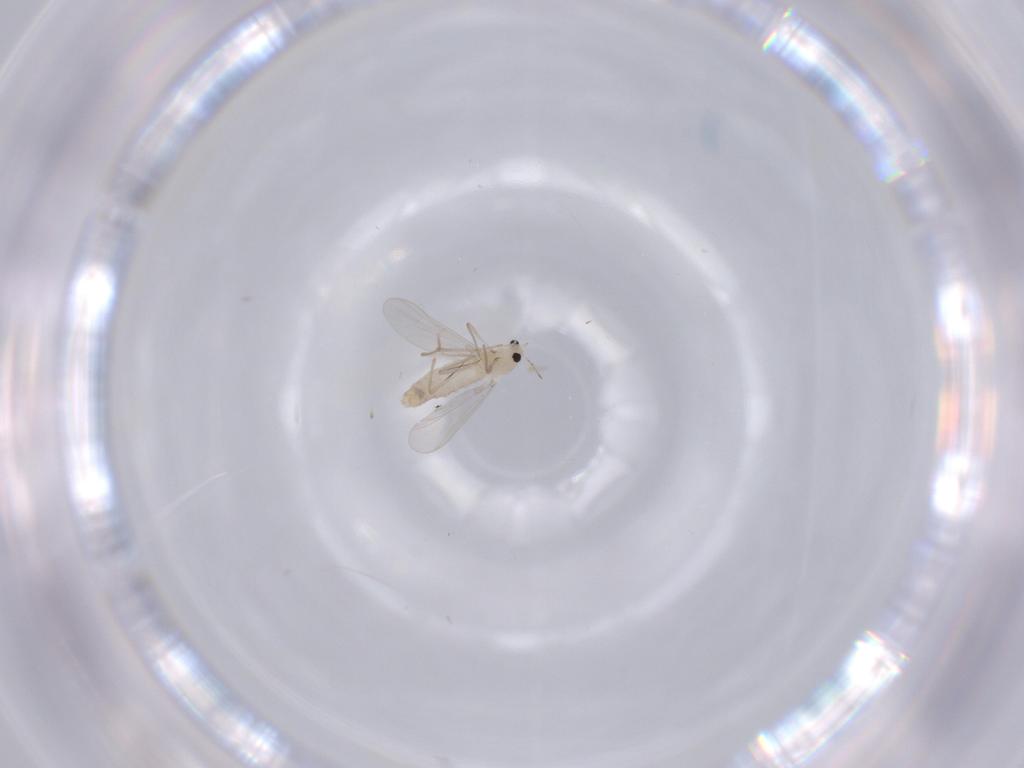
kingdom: Animalia
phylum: Arthropoda
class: Insecta
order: Diptera
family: Chironomidae
